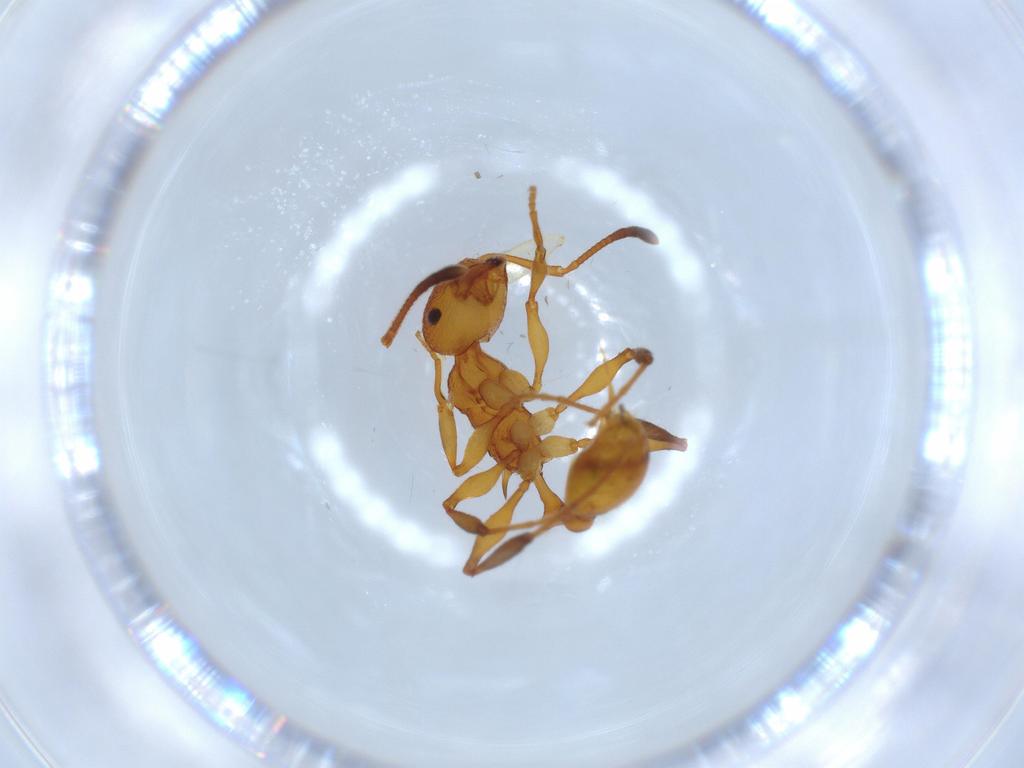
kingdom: Animalia
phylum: Arthropoda
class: Insecta
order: Hymenoptera
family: Formicidae
